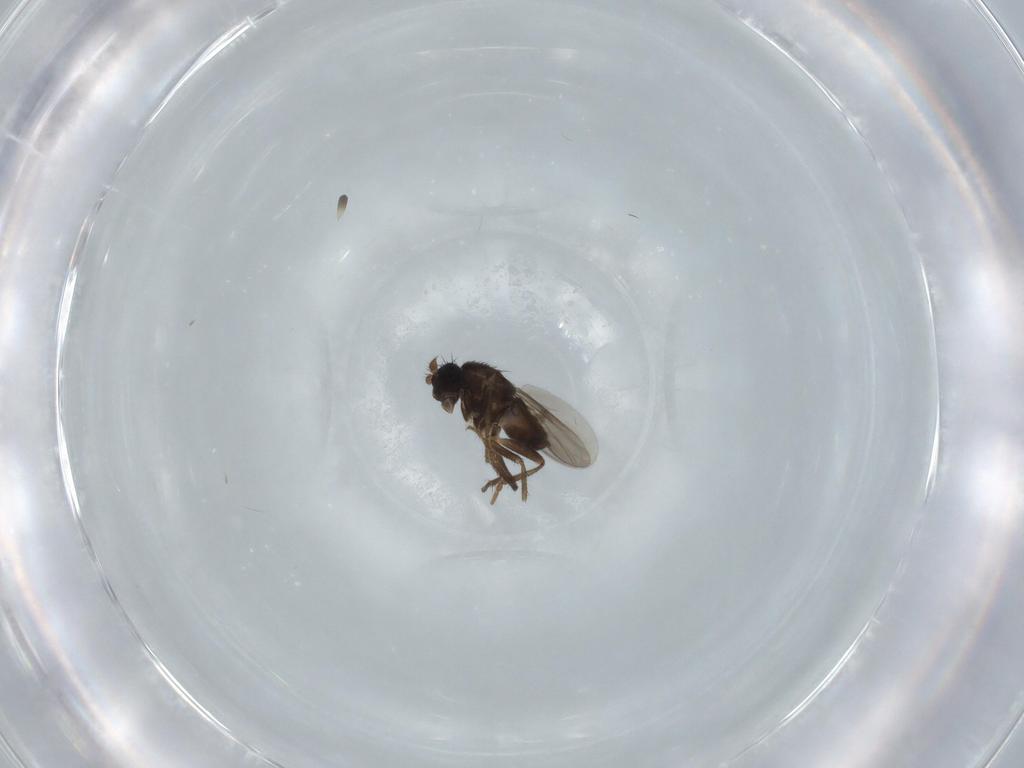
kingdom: Animalia
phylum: Arthropoda
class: Insecta
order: Diptera
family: Sphaeroceridae
